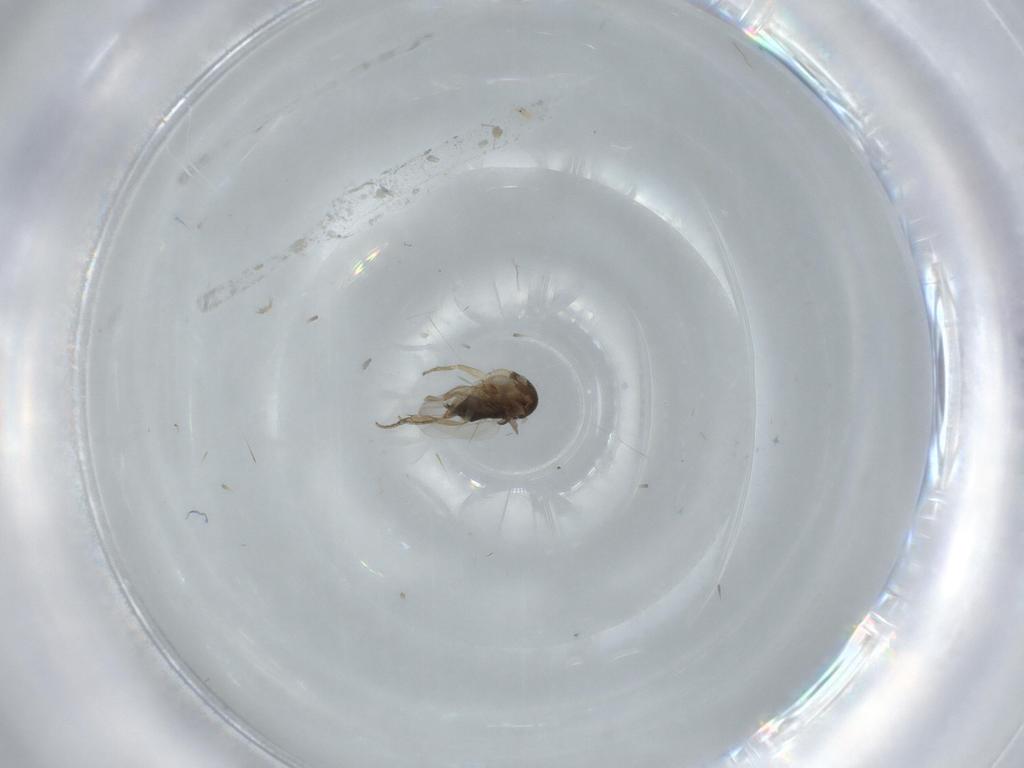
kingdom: Animalia
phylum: Arthropoda
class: Insecta
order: Diptera
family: Phoridae
